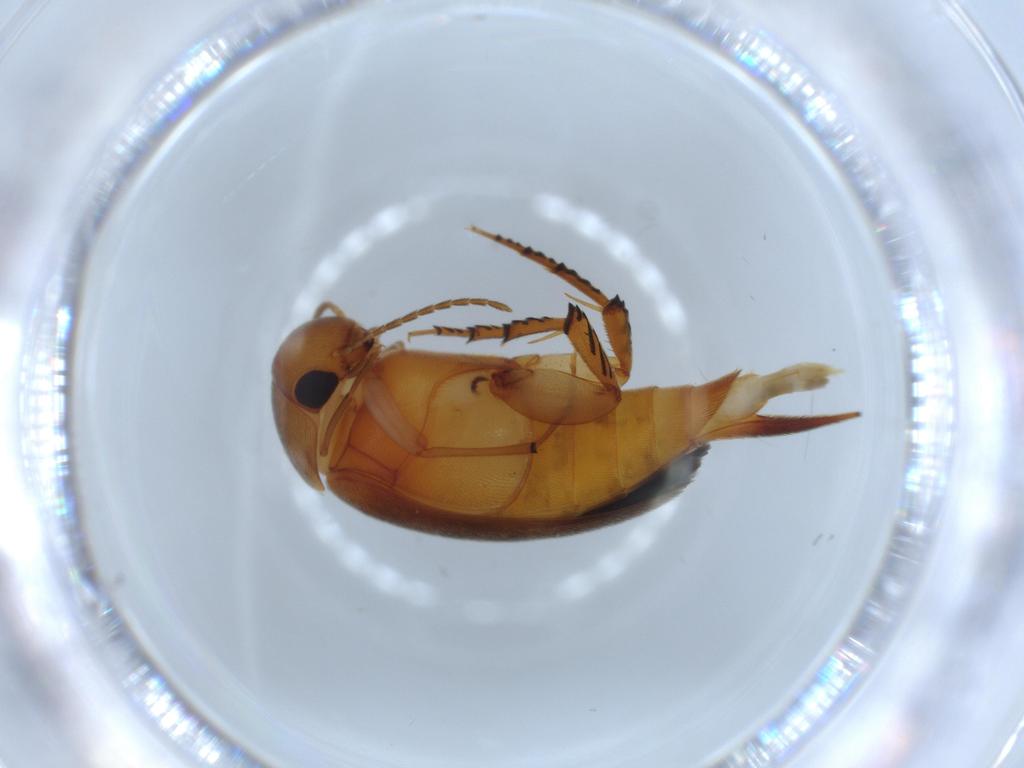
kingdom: Animalia
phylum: Arthropoda
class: Insecta
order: Coleoptera
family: Mordellidae
